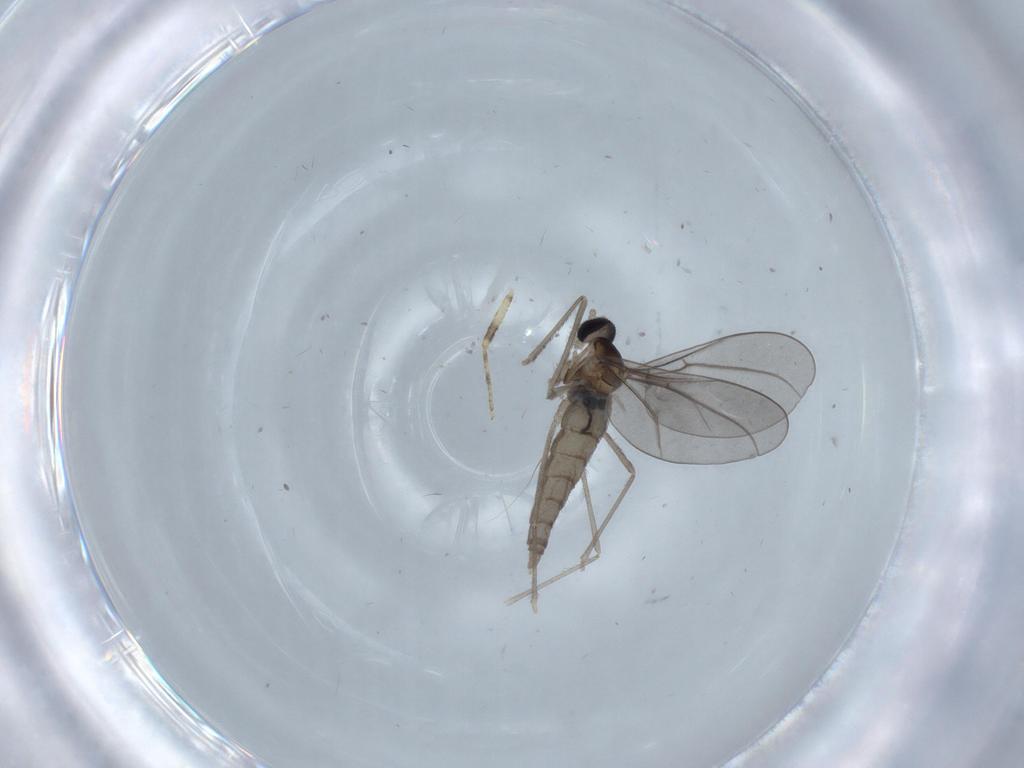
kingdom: Animalia
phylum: Arthropoda
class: Insecta
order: Diptera
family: Cecidomyiidae
